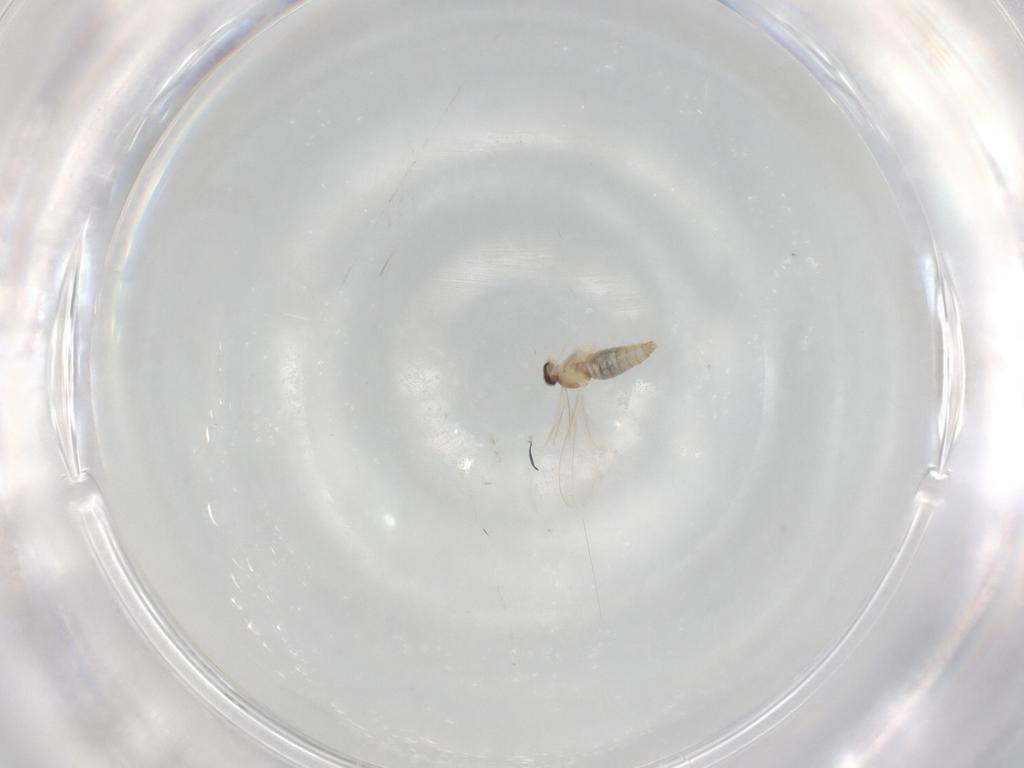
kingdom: Animalia
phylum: Arthropoda
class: Insecta
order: Diptera
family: Cecidomyiidae
